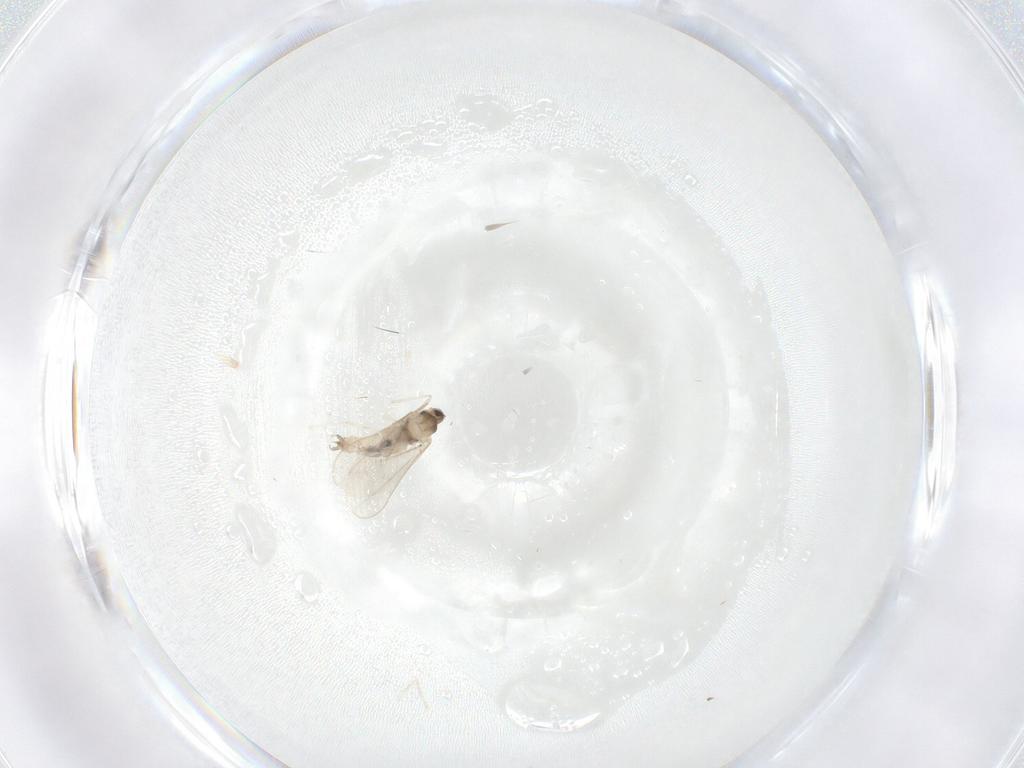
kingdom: Animalia
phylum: Arthropoda
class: Insecta
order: Diptera
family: Cecidomyiidae
